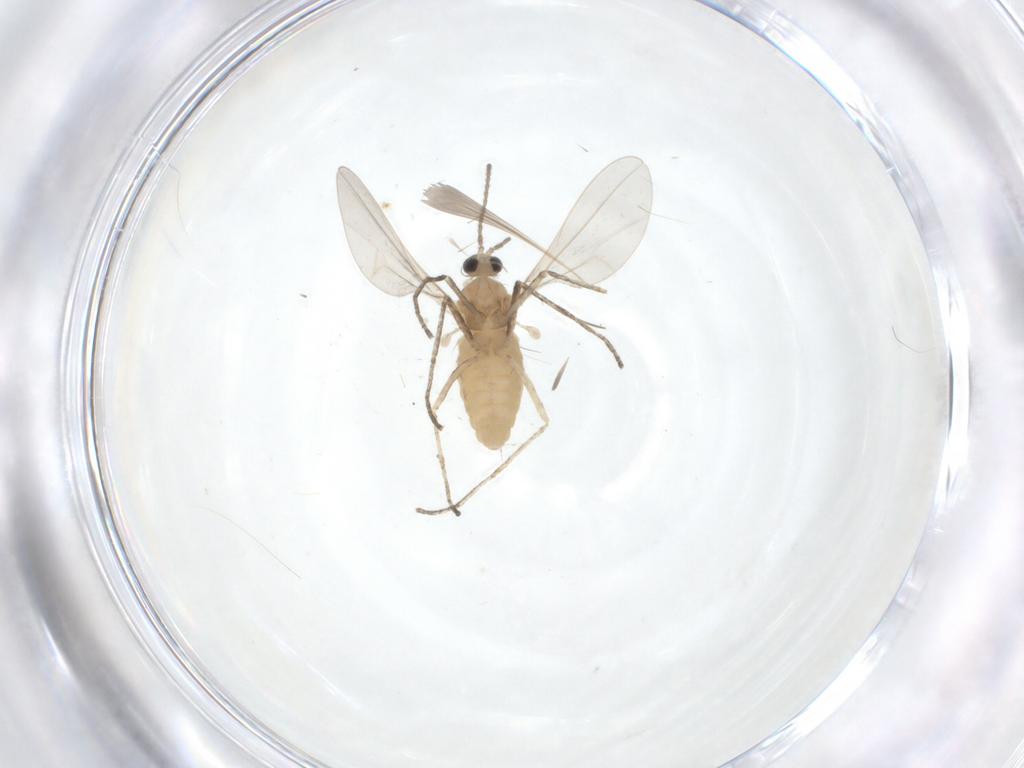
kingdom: Animalia
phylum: Arthropoda
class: Insecta
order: Diptera
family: Cecidomyiidae
